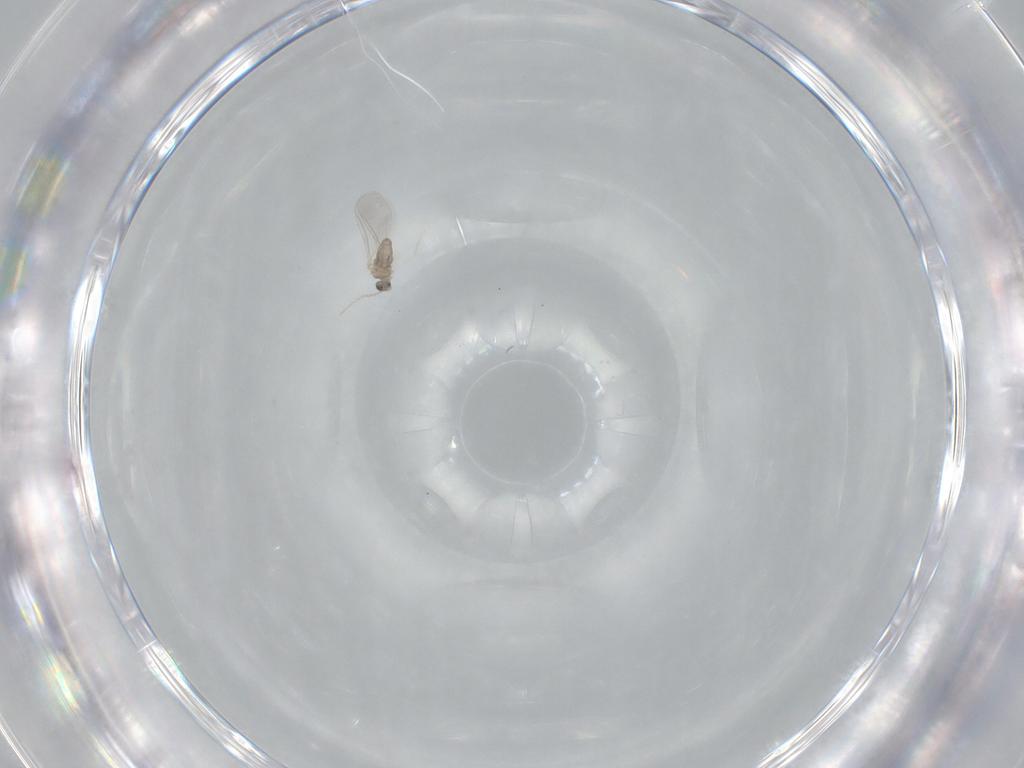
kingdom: Animalia
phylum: Arthropoda
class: Insecta
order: Diptera
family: Cecidomyiidae
